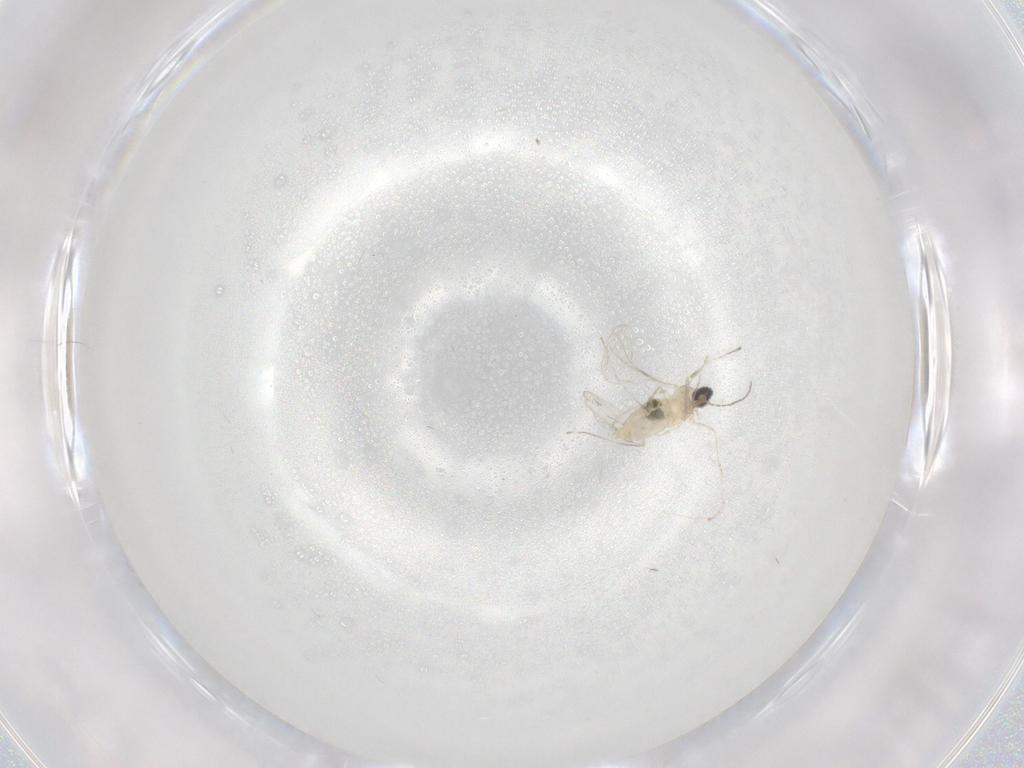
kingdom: Animalia
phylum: Arthropoda
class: Insecta
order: Diptera
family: Cecidomyiidae
